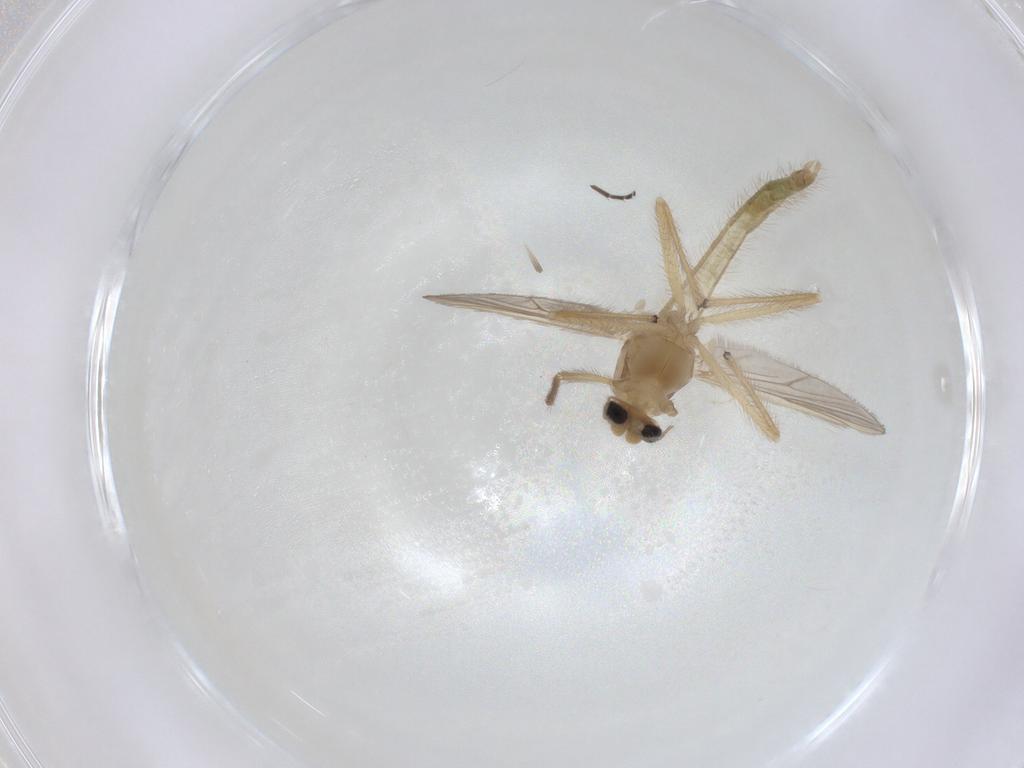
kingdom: Animalia
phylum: Arthropoda
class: Insecta
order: Diptera
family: Chironomidae
